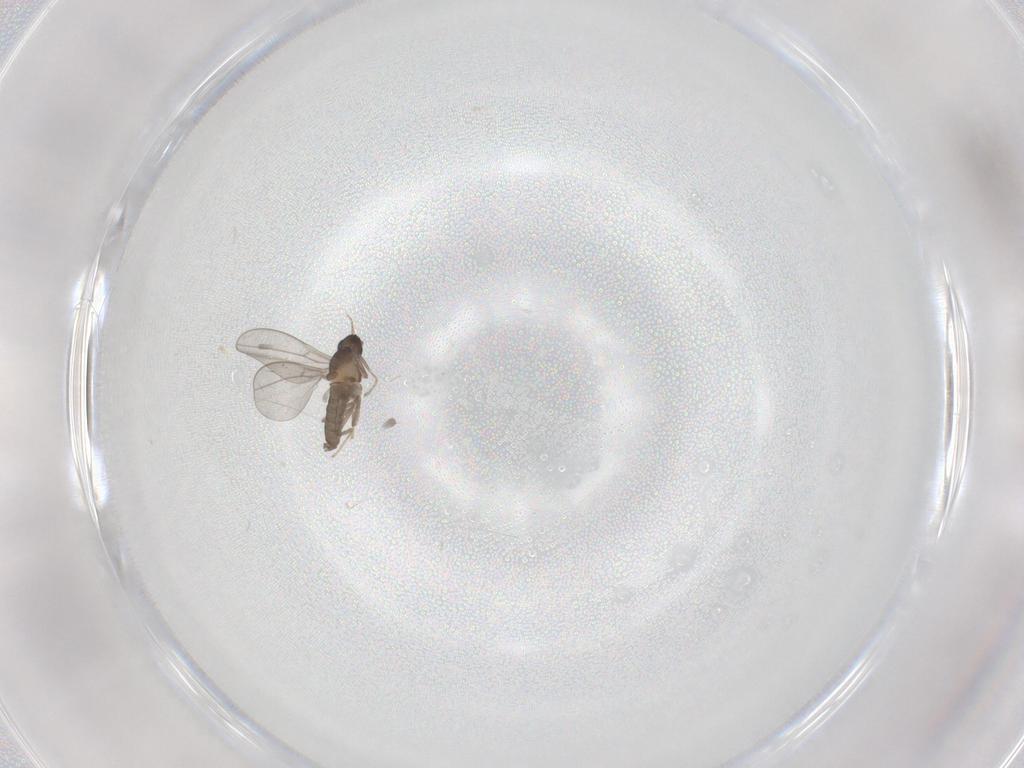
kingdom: Animalia
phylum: Arthropoda
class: Insecta
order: Diptera
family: Cecidomyiidae
